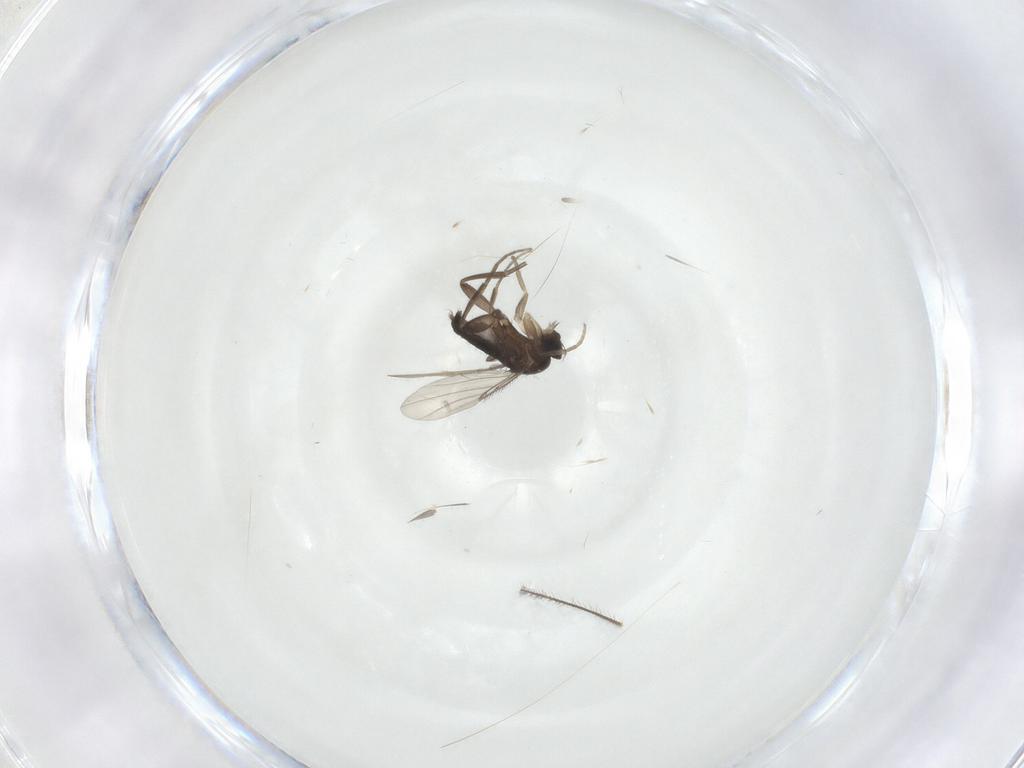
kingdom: Animalia
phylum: Arthropoda
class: Insecta
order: Diptera
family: Phoridae
